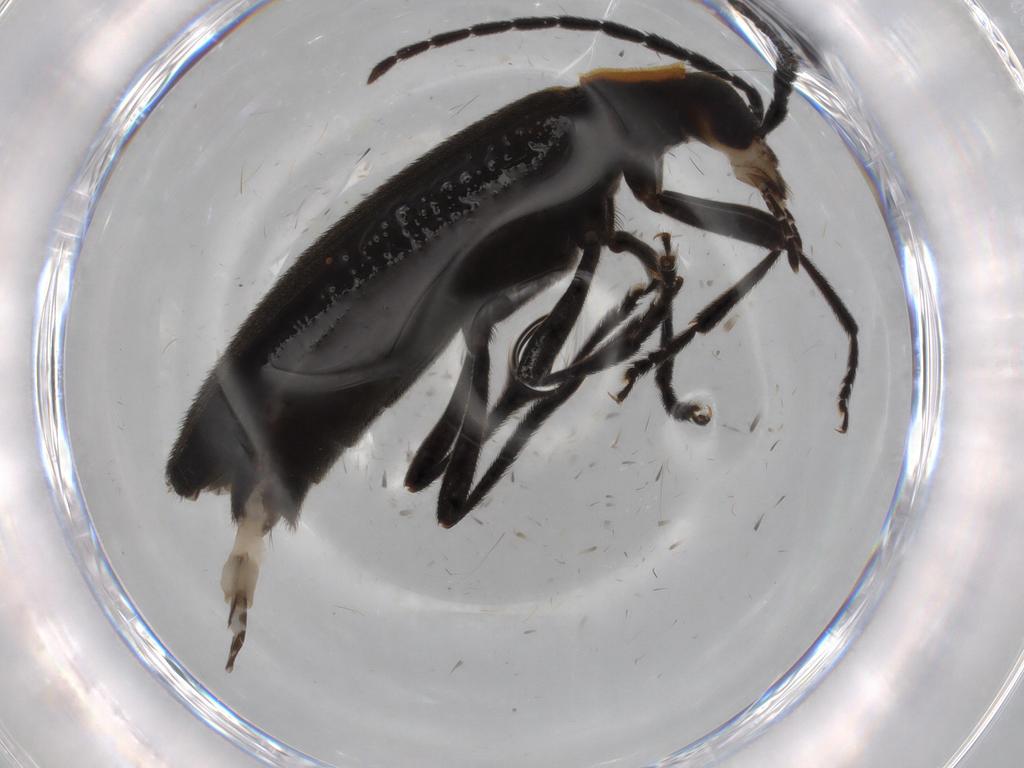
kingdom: Animalia
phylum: Arthropoda
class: Insecta
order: Coleoptera
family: Oedemeridae
